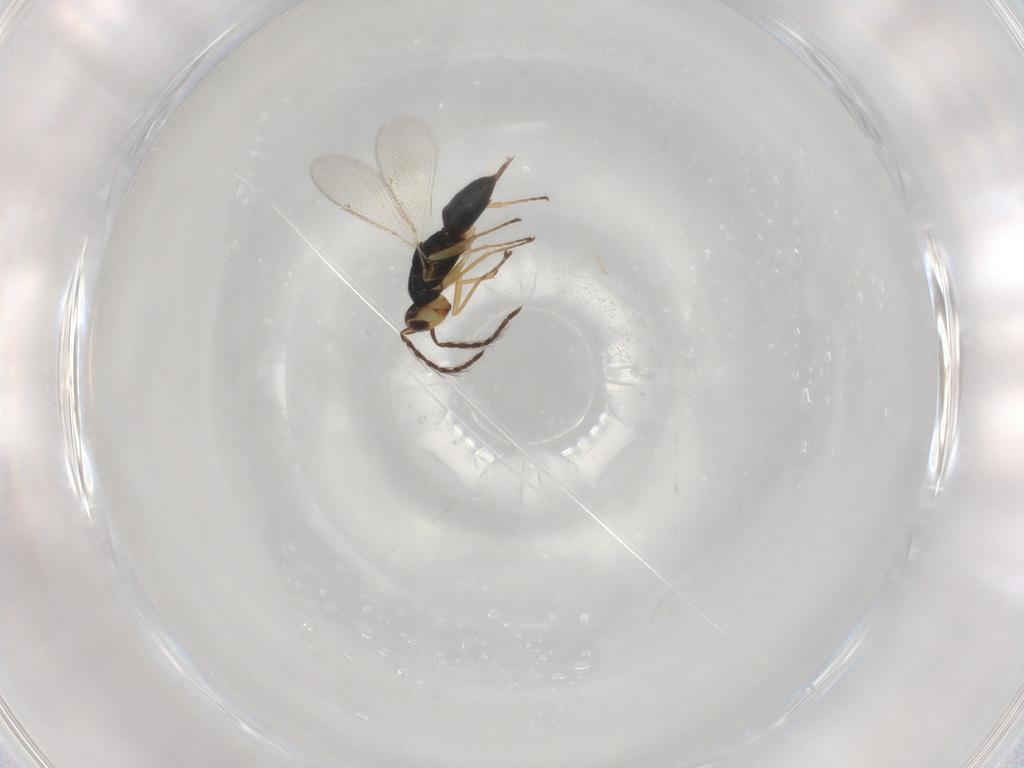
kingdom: Animalia
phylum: Arthropoda
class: Insecta
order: Hymenoptera
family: Eulophidae
